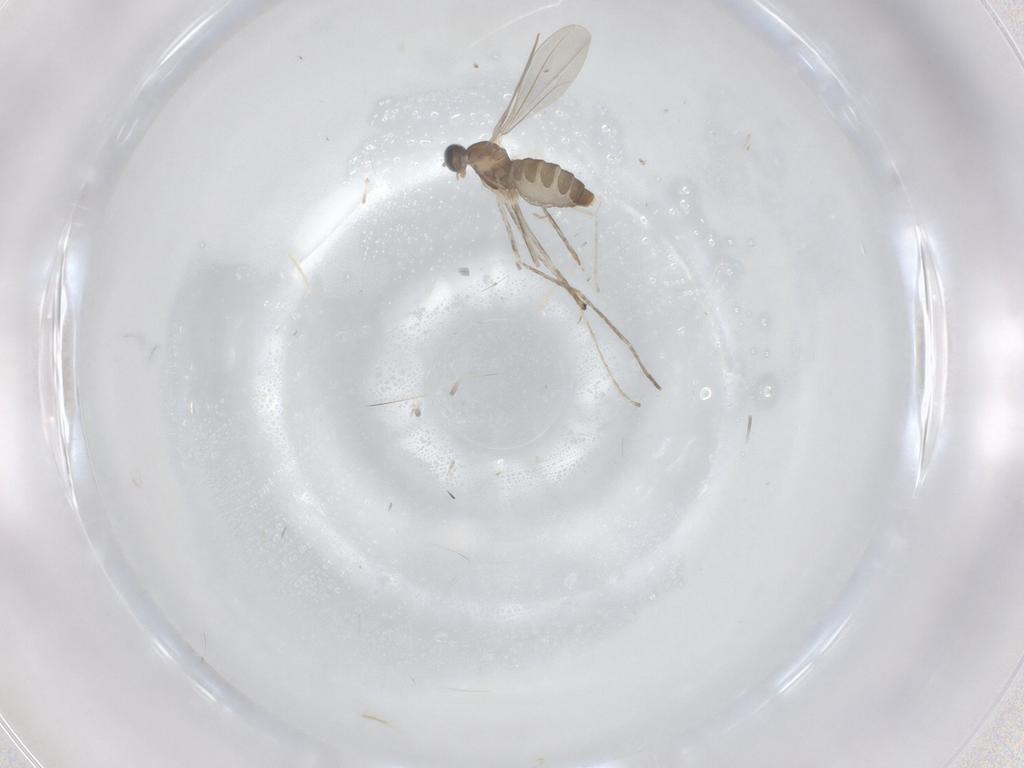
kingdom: Animalia
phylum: Arthropoda
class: Insecta
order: Diptera
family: Cecidomyiidae
